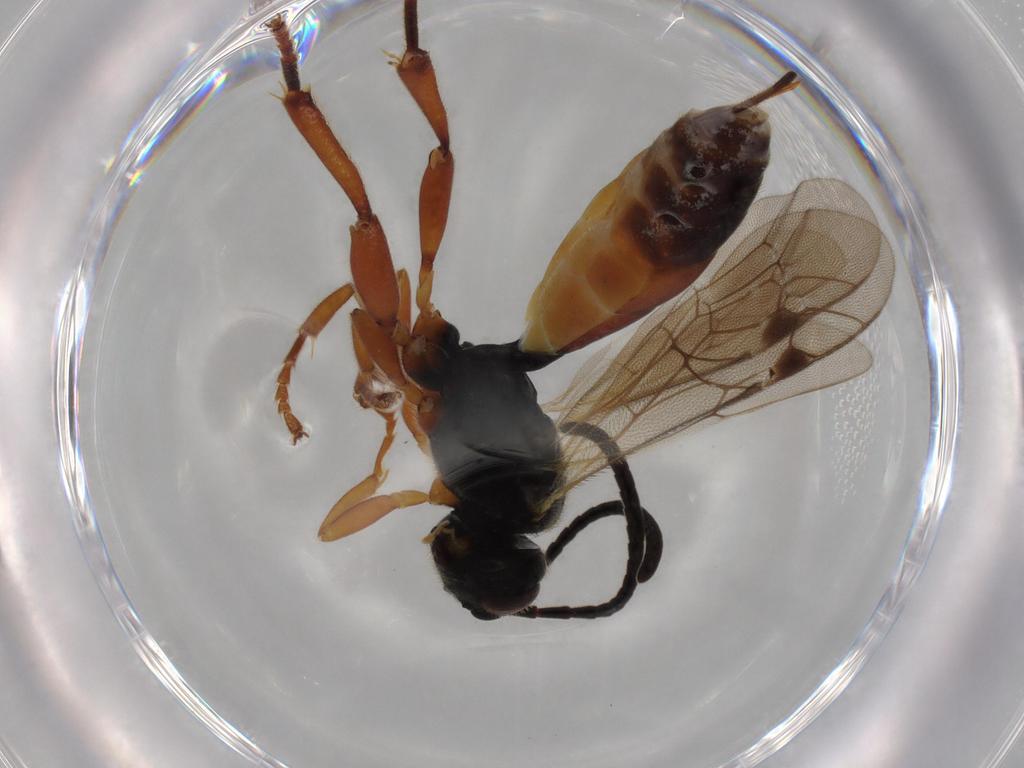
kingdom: Animalia
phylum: Arthropoda
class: Insecta
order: Hymenoptera
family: Ichneumonidae
